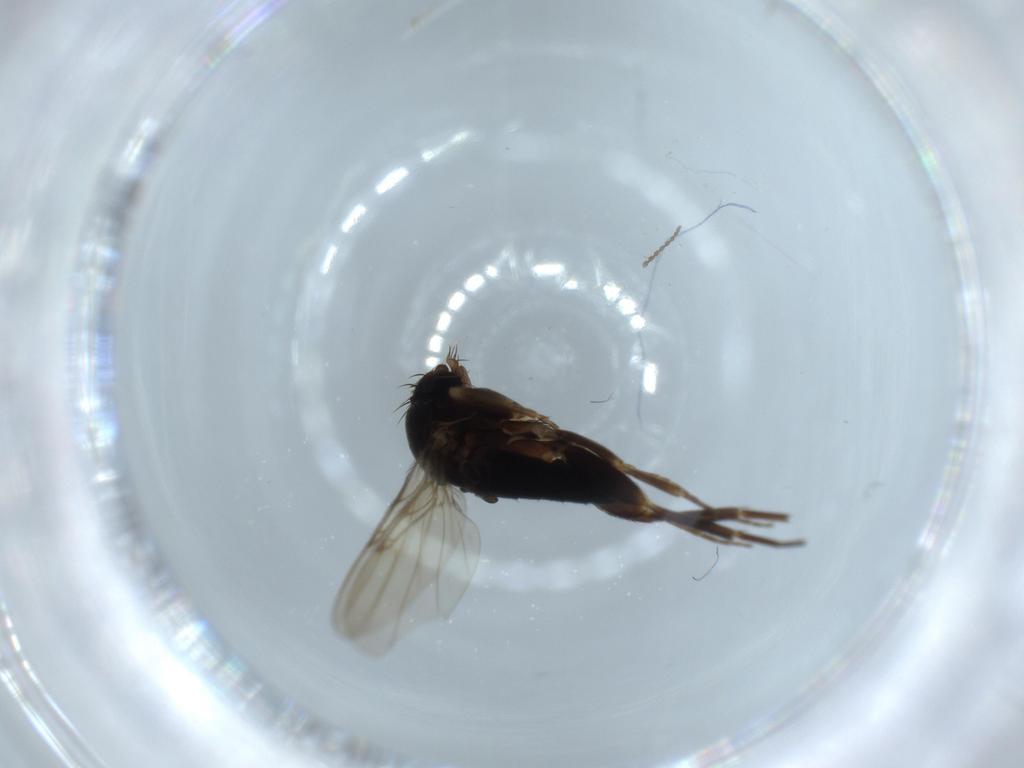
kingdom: Animalia
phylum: Arthropoda
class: Insecta
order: Diptera
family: Phoridae
